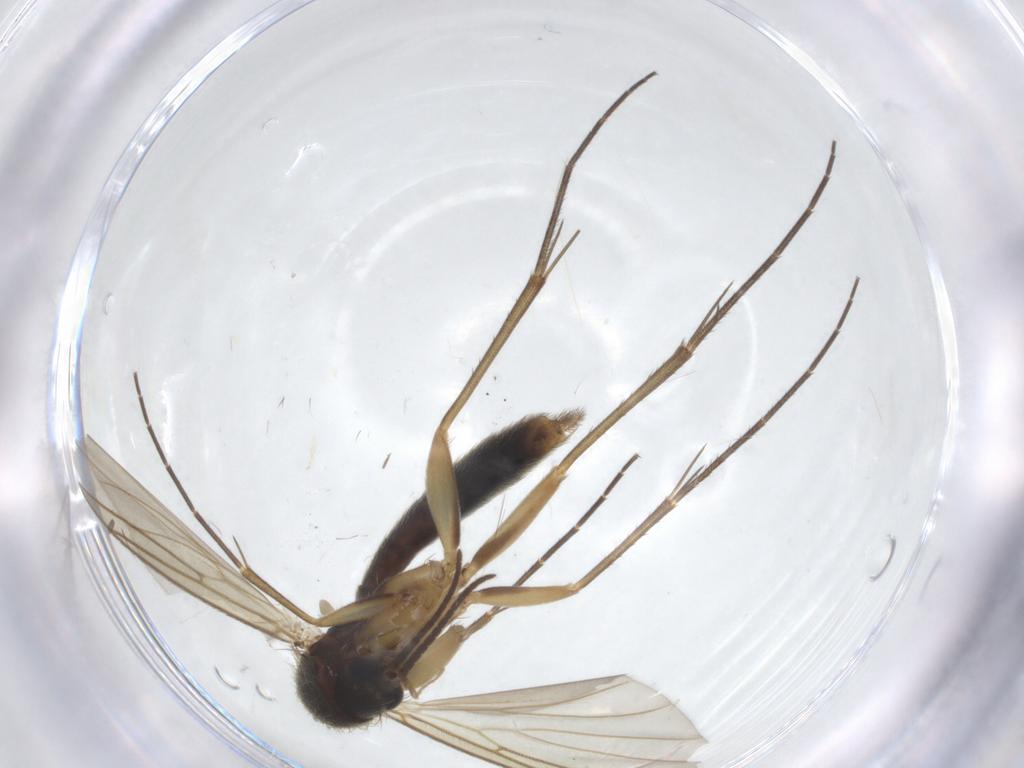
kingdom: Animalia
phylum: Arthropoda
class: Insecta
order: Diptera
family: Mycetophilidae
